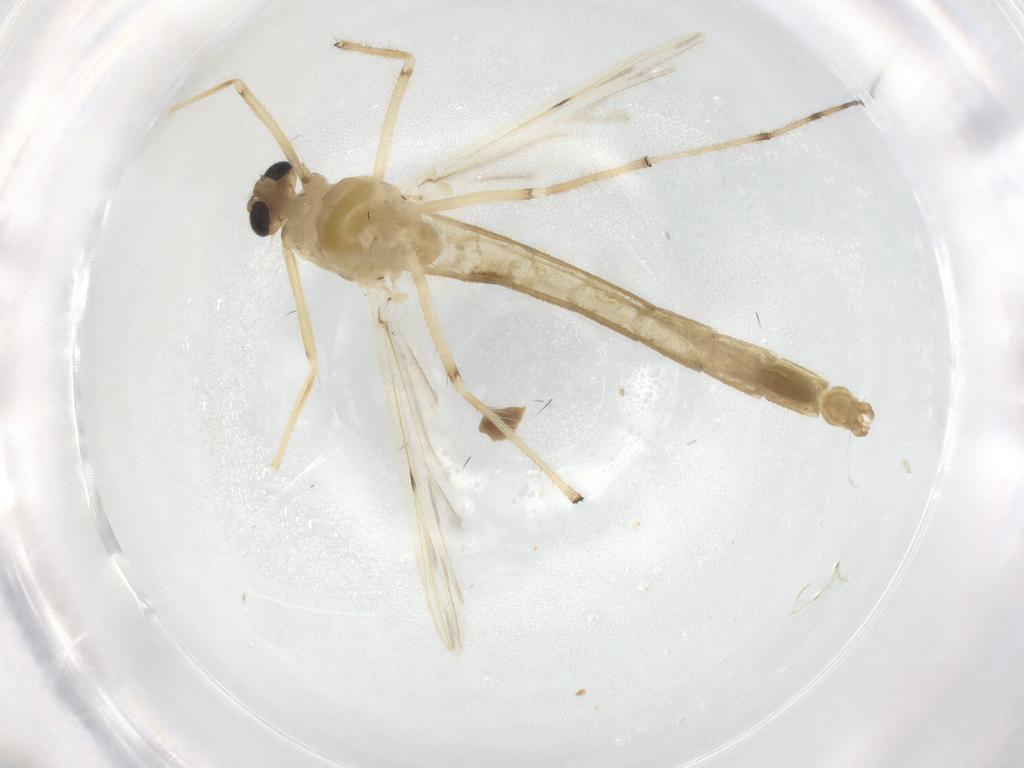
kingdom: Animalia
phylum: Arthropoda
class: Insecta
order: Diptera
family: Chironomidae
